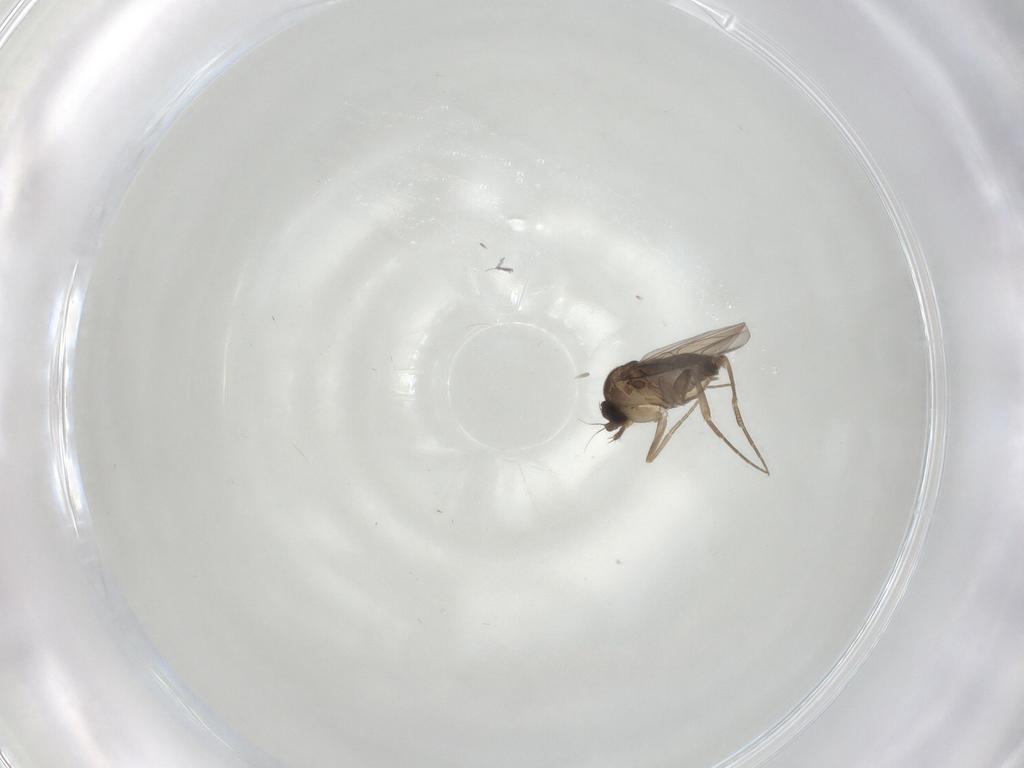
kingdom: Animalia
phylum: Arthropoda
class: Insecta
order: Diptera
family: Phoridae
